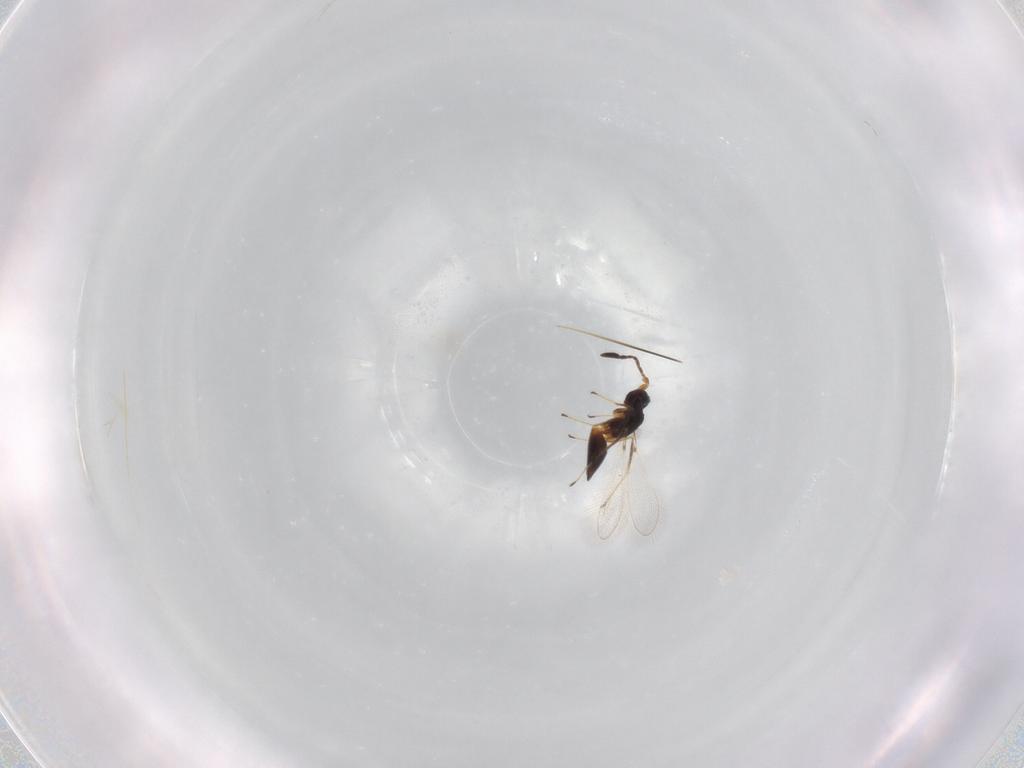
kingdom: Animalia
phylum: Arthropoda
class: Insecta
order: Hymenoptera
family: Mymaridae
